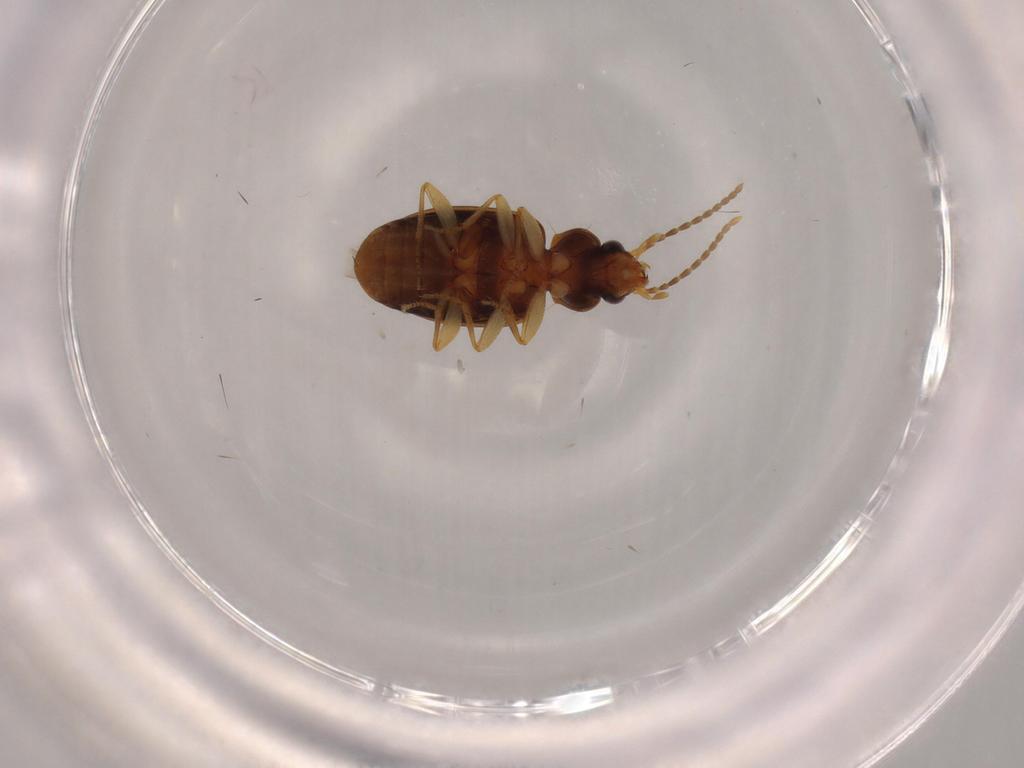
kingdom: Animalia
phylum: Arthropoda
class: Insecta
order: Coleoptera
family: Carabidae
